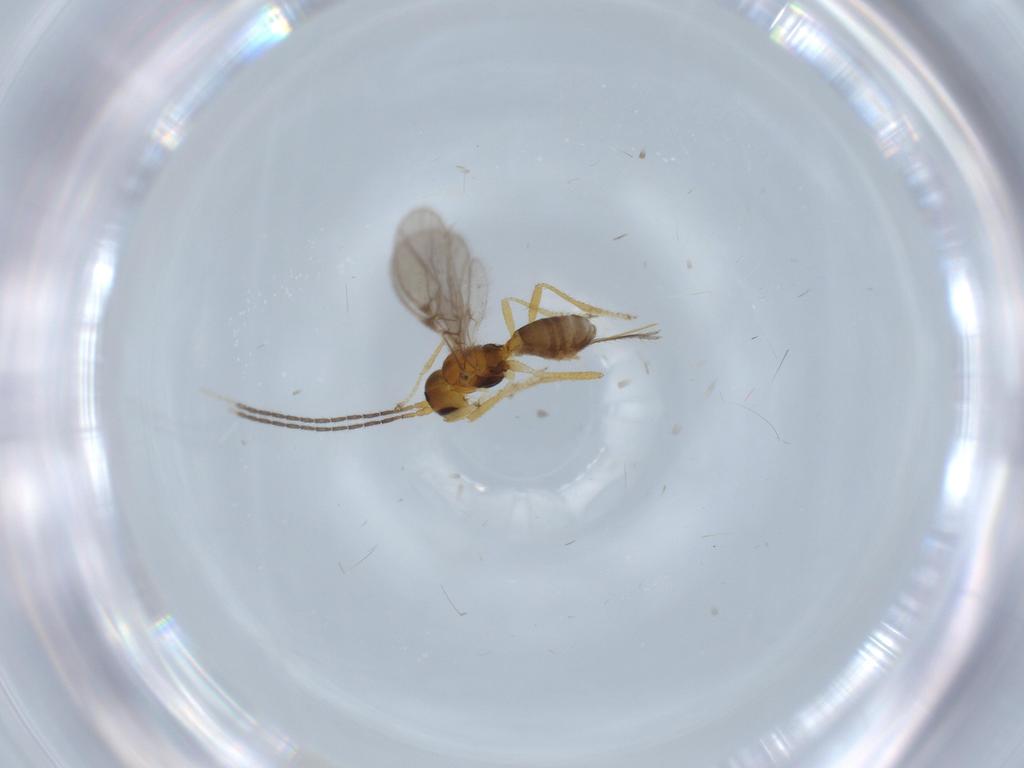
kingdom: Animalia
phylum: Arthropoda
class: Insecta
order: Hymenoptera
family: Braconidae
